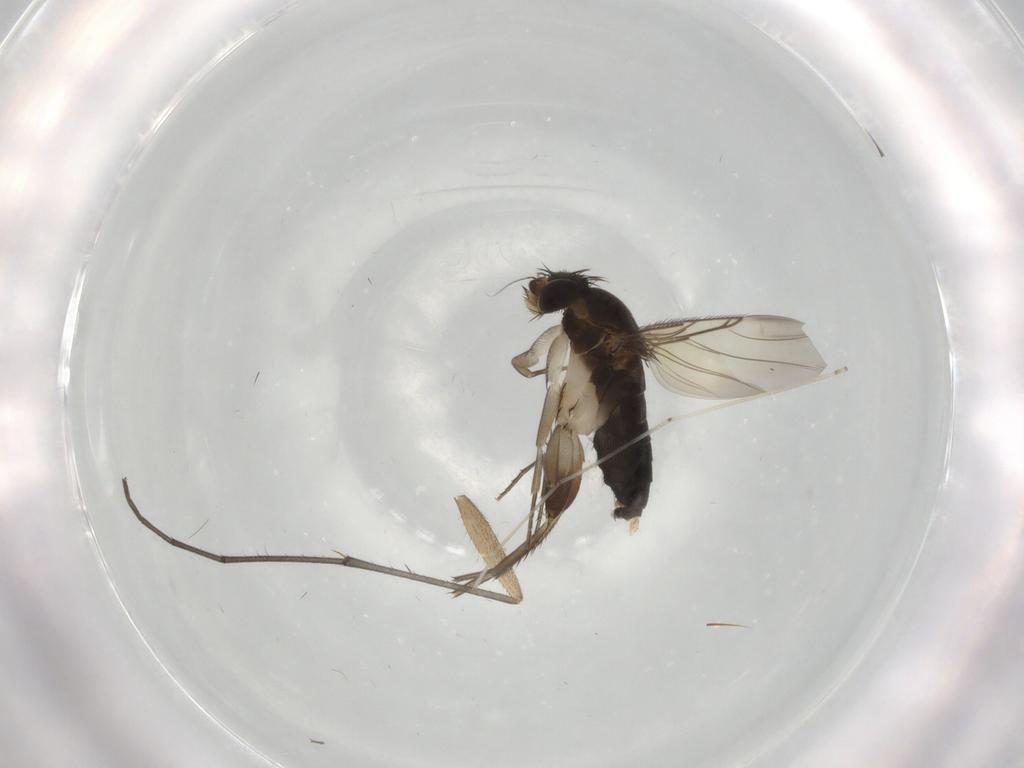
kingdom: Animalia
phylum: Arthropoda
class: Insecta
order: Diptera
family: Phoridae
